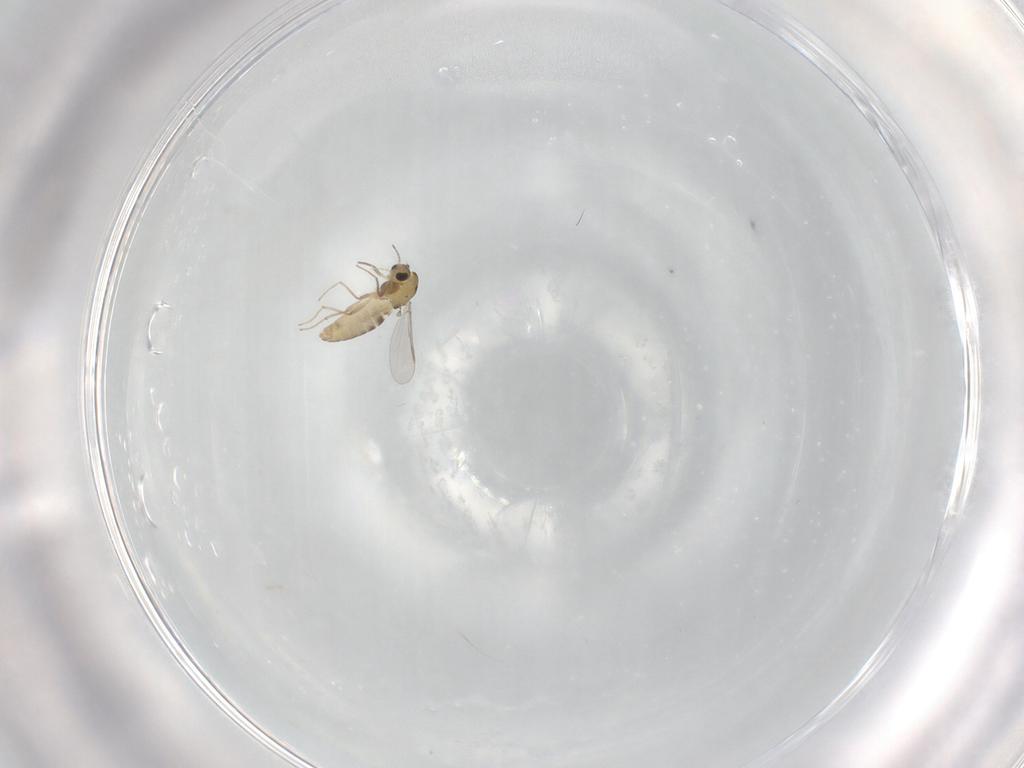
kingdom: Animalia
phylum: Arthropoda
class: Insecta
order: Diptera
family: Chironomidae
